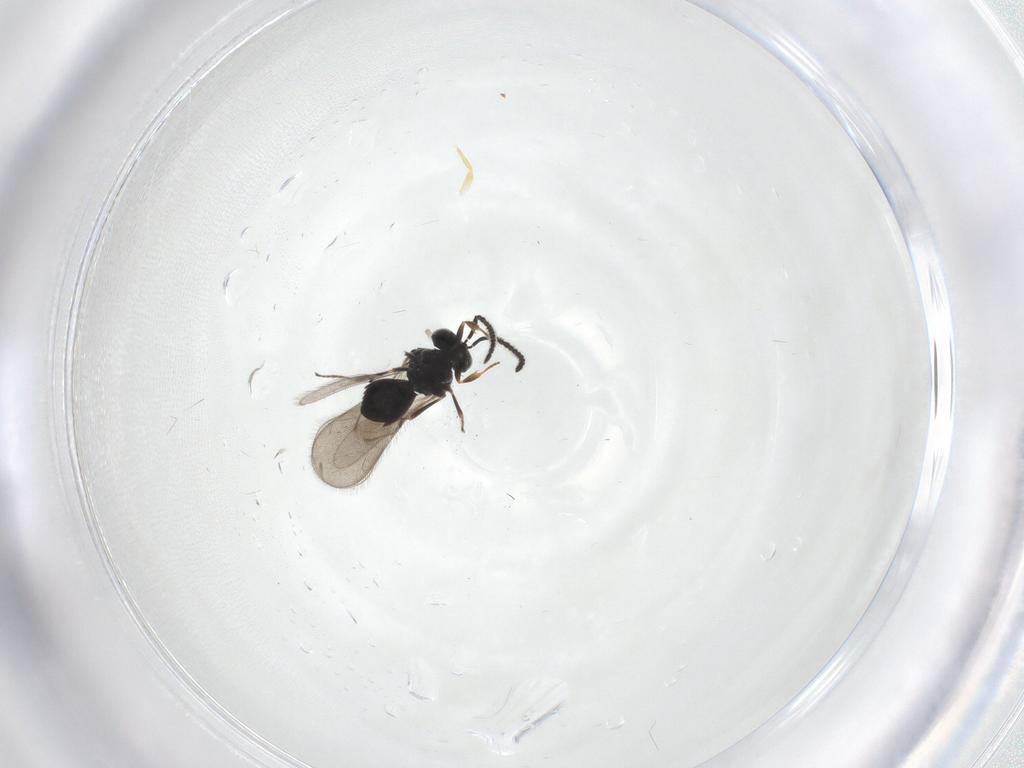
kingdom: Animalia
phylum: Arthropoda
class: Insecta
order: Hymenoptera
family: Scelionidae
